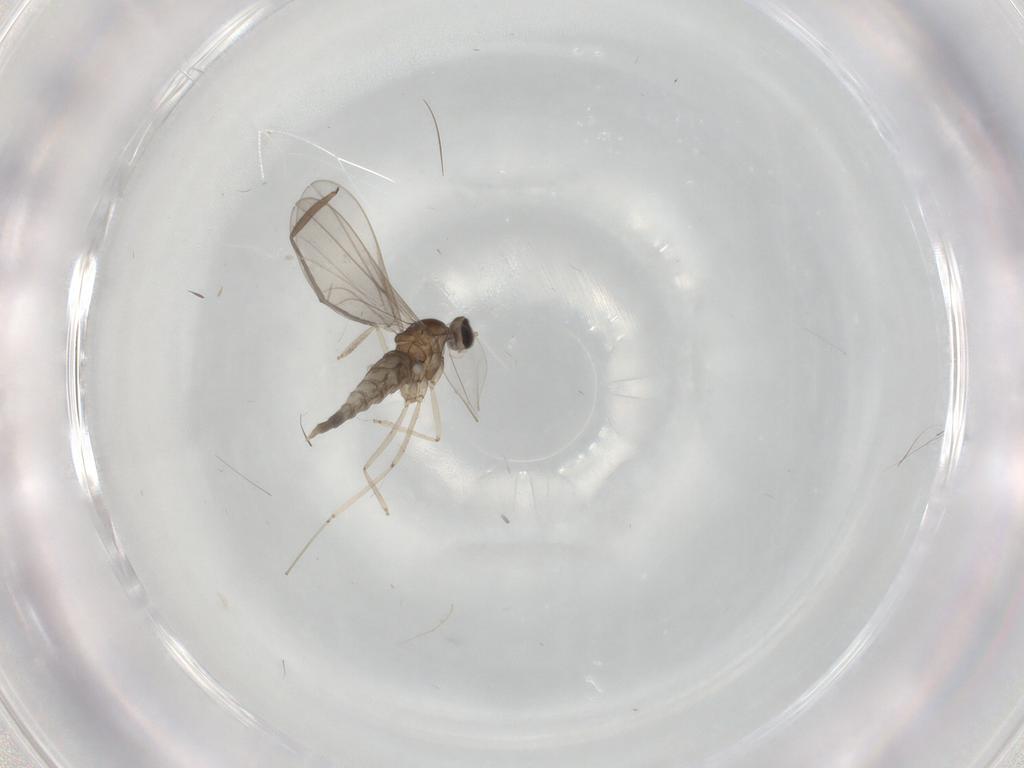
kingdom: Animalia
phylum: Arthropoda
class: Insecta
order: Diptera
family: Cecidomyiidae
